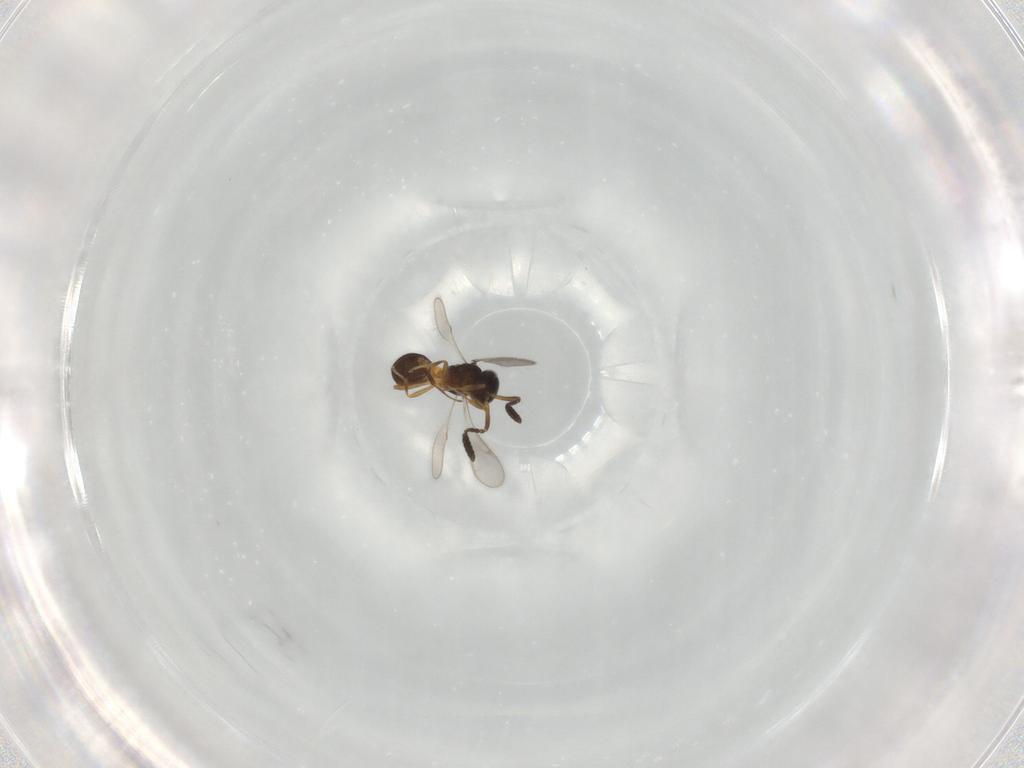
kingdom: Animalia
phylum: Arthropoda
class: Insecta
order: Hymenoptera
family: Scelionidae
